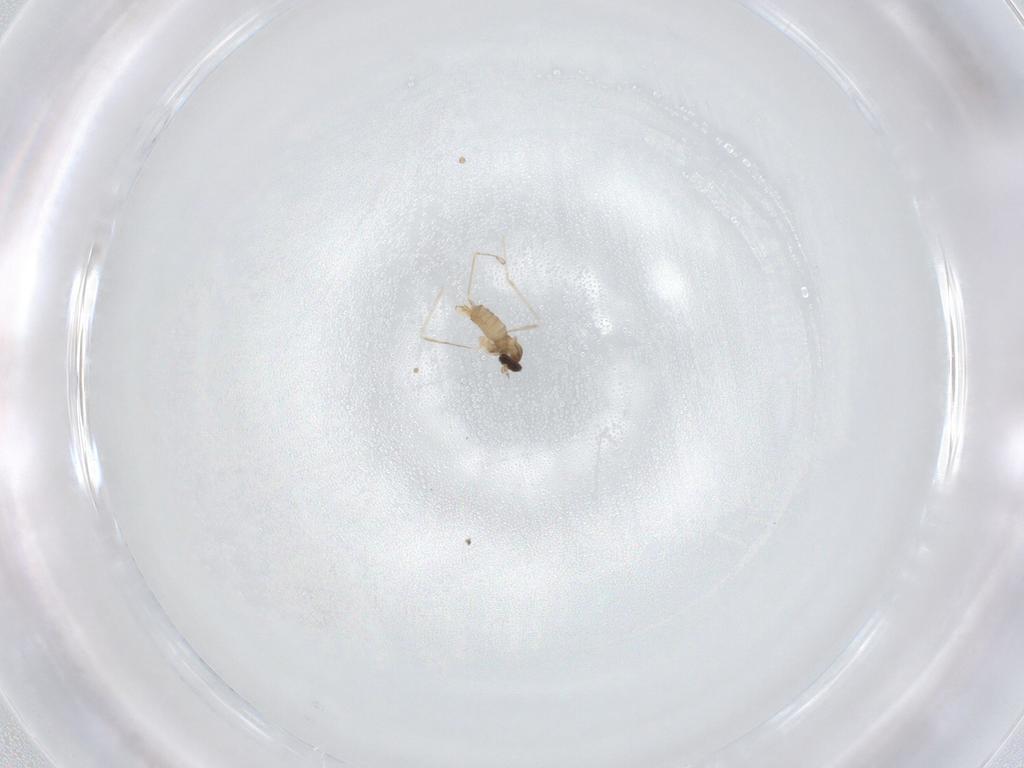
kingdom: Animalia
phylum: Arthropoda
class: Insecta
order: Diptera
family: Cecidomyiidae
